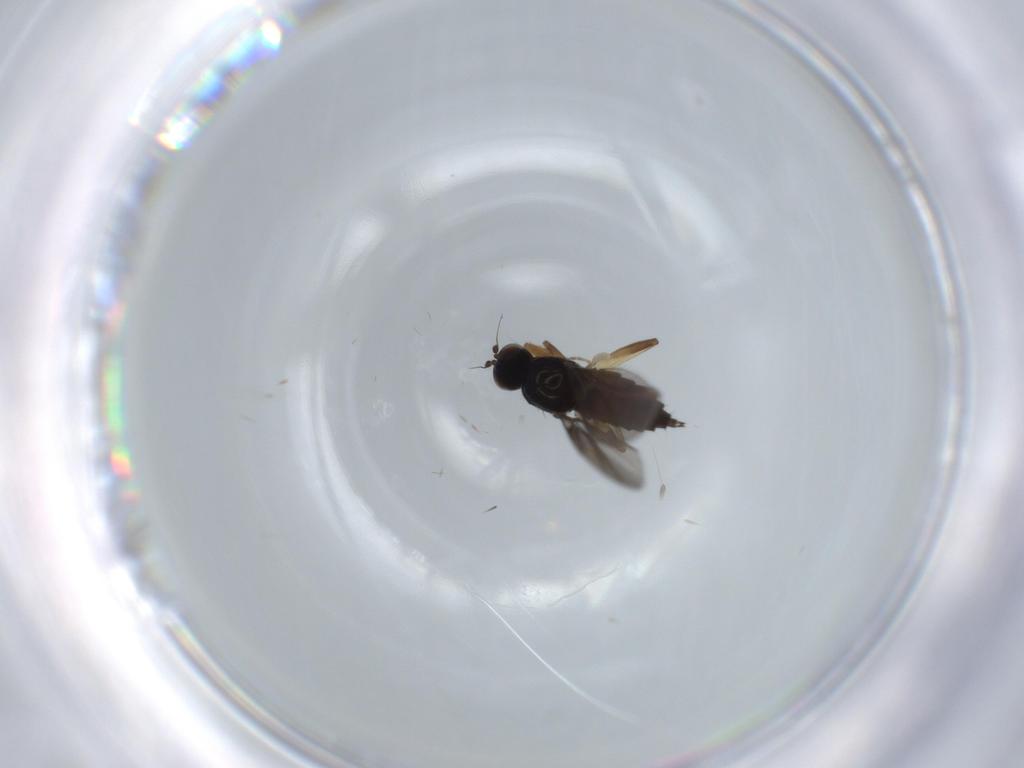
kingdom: Animalia
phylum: Arthropoda
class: Insecta
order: Diptera
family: Hybotidae
